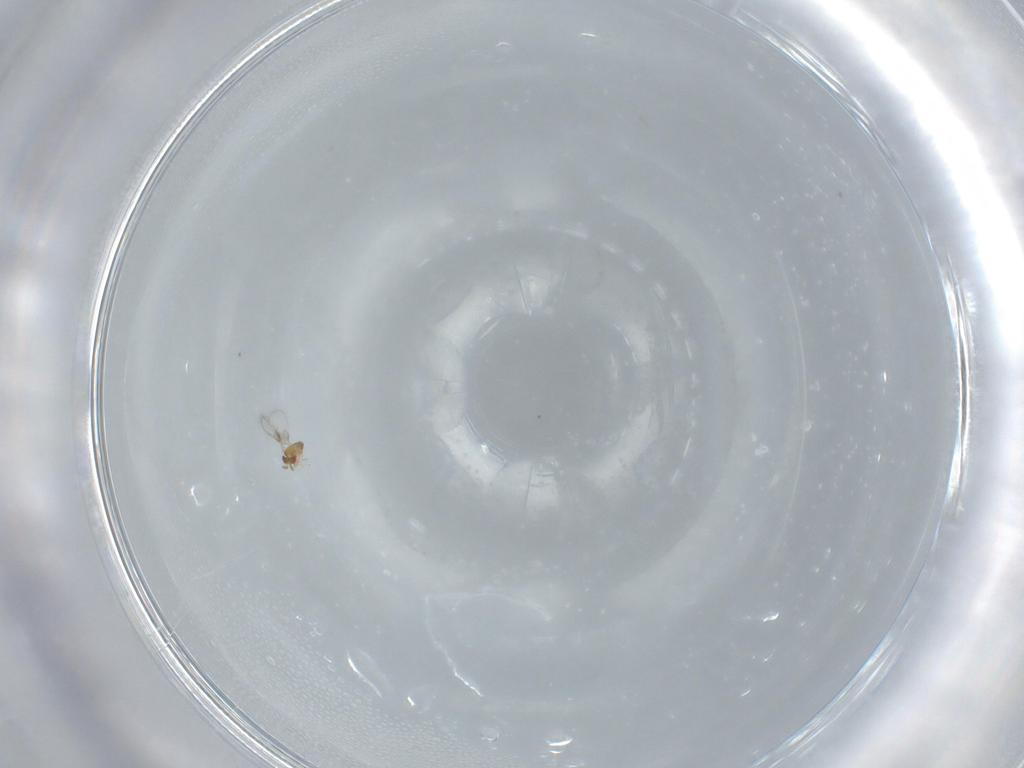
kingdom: Animalia
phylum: Arthropoda
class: Insecta
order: Hymenoptera
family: Trichogrammatidae
